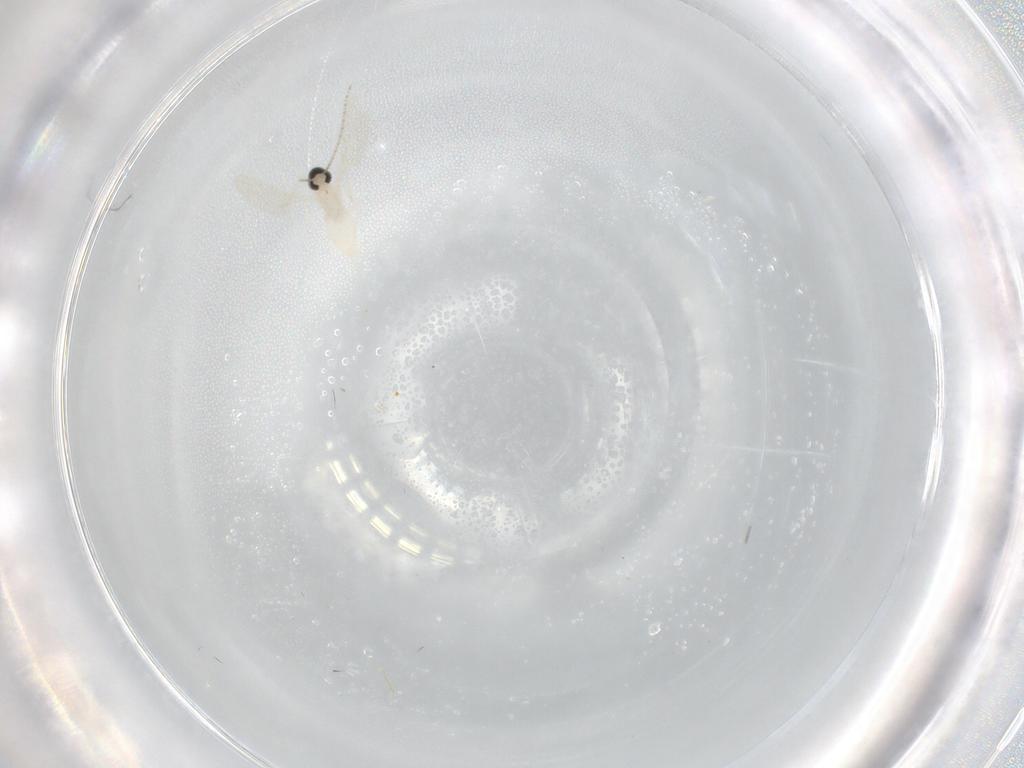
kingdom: Animalia
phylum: Arthropoda
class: Insecta
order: Diptera
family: Cecidomyiidae
